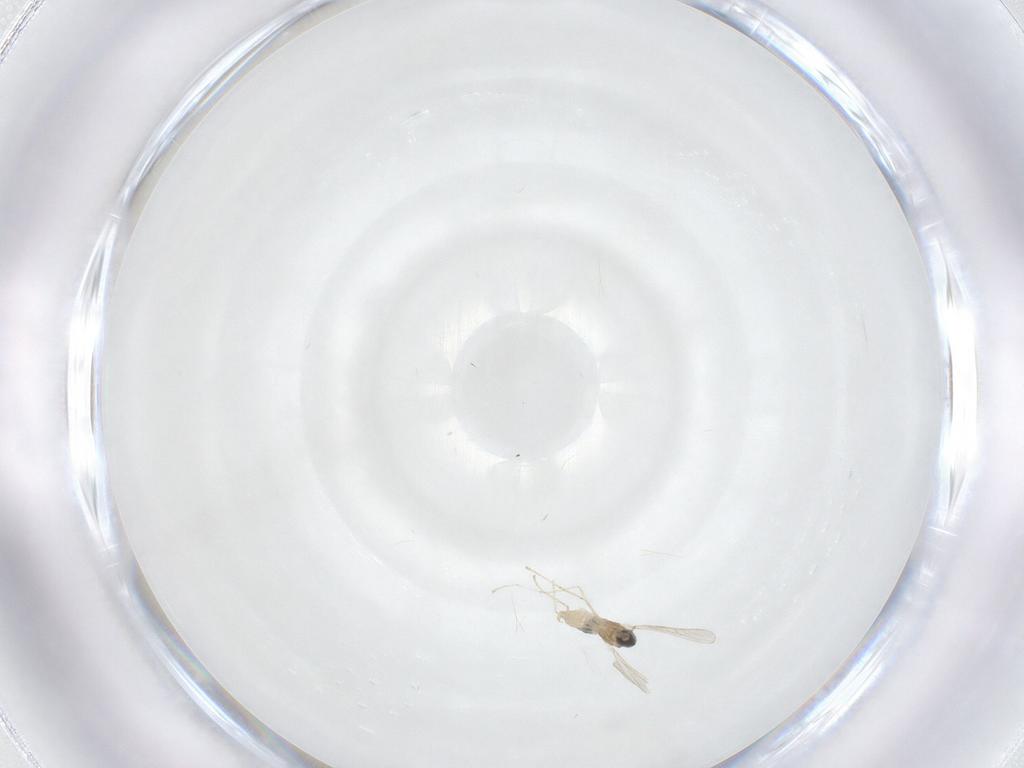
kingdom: Animalia
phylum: Arthropoda
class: Insecta
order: Diptera
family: Cecidomyiidae
